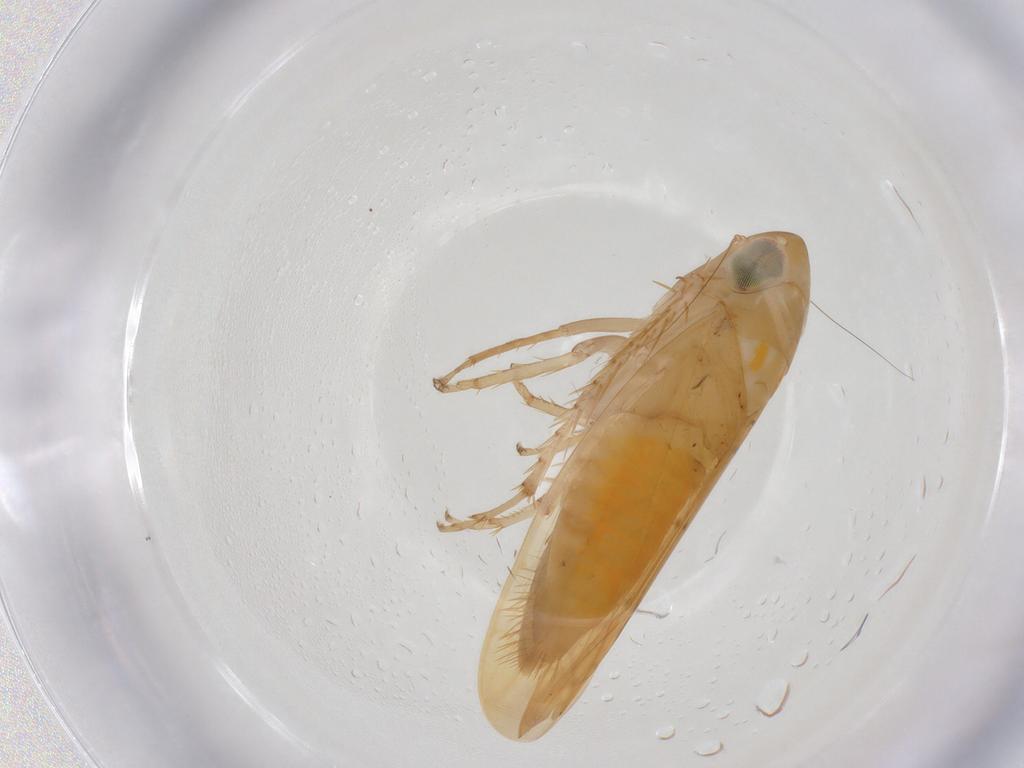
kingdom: Animalia
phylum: Arthropoda
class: Insecta
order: Hemiptera
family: Cicadellidae
